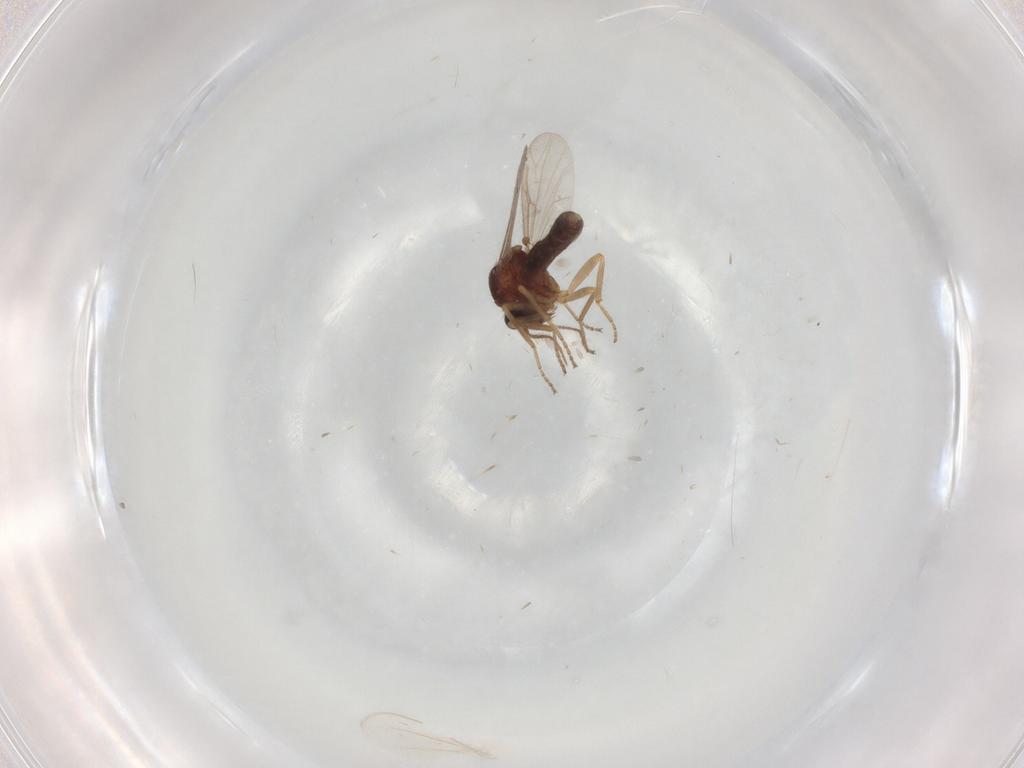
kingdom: Animalia
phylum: Arthropoda
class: Insecta
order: Diptera
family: Ceratopogonidae
